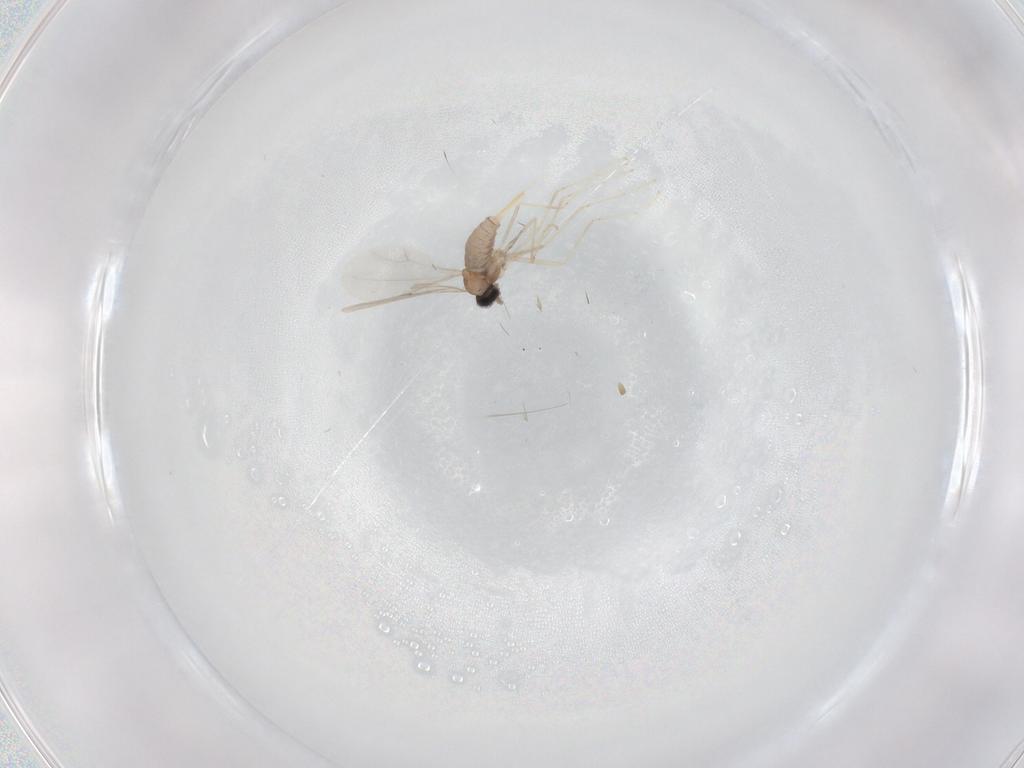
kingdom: Animalia
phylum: Arthropoda
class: Insecta
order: Diptera
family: Cecidomyiidae
